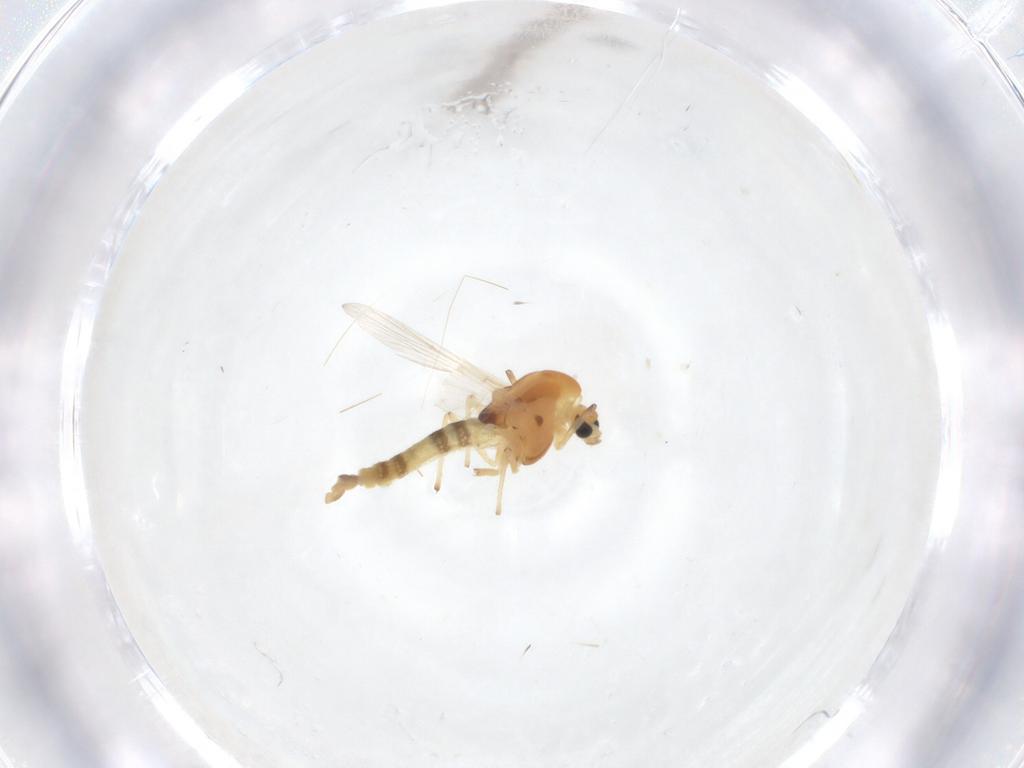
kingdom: Animalia
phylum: Arthropoda
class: Insecta
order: Diptera
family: Chironomidae
